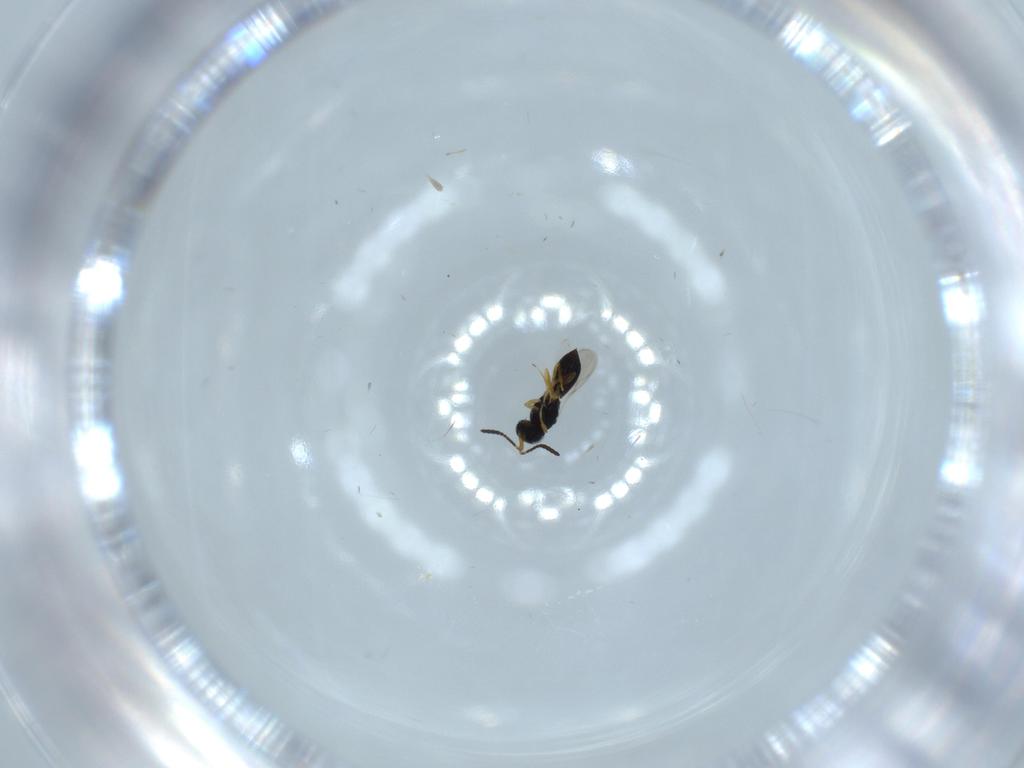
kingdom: Animalia
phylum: Arthropoda
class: Insecta
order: Hymenoptera
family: Scelionidae
